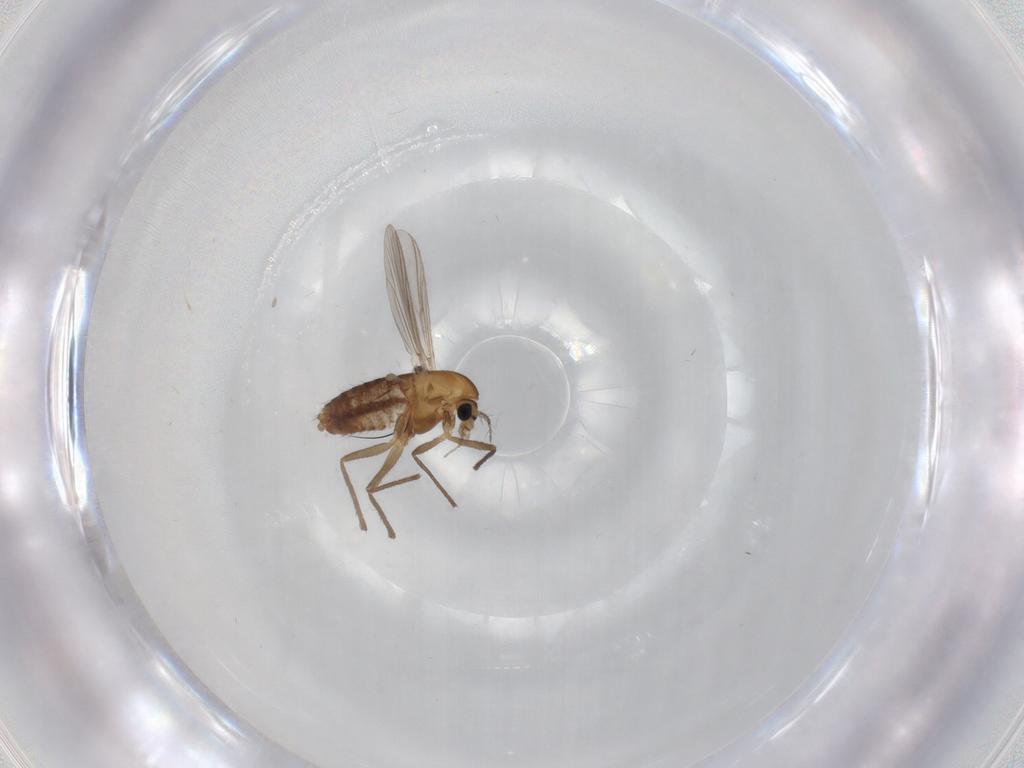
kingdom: Animalia
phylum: Arthropoda
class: Insecta
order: Diptera
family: Chironomidae
